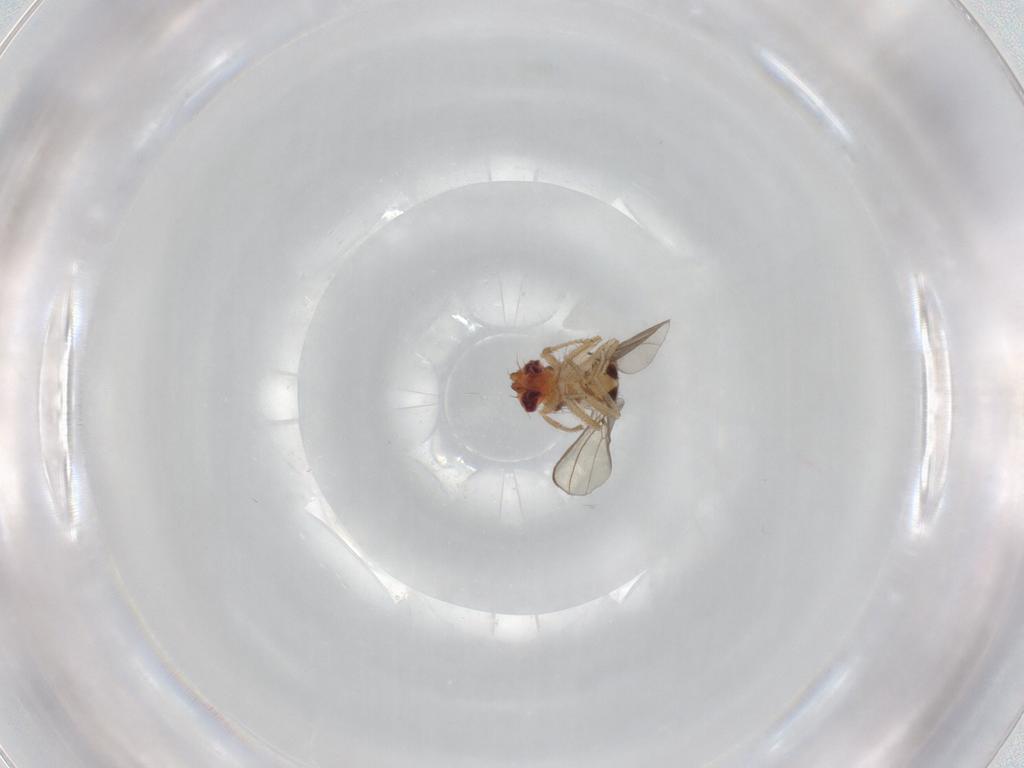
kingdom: Animalia
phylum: Arthropoda
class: Insecta
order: Diptera
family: Drosophilidae
